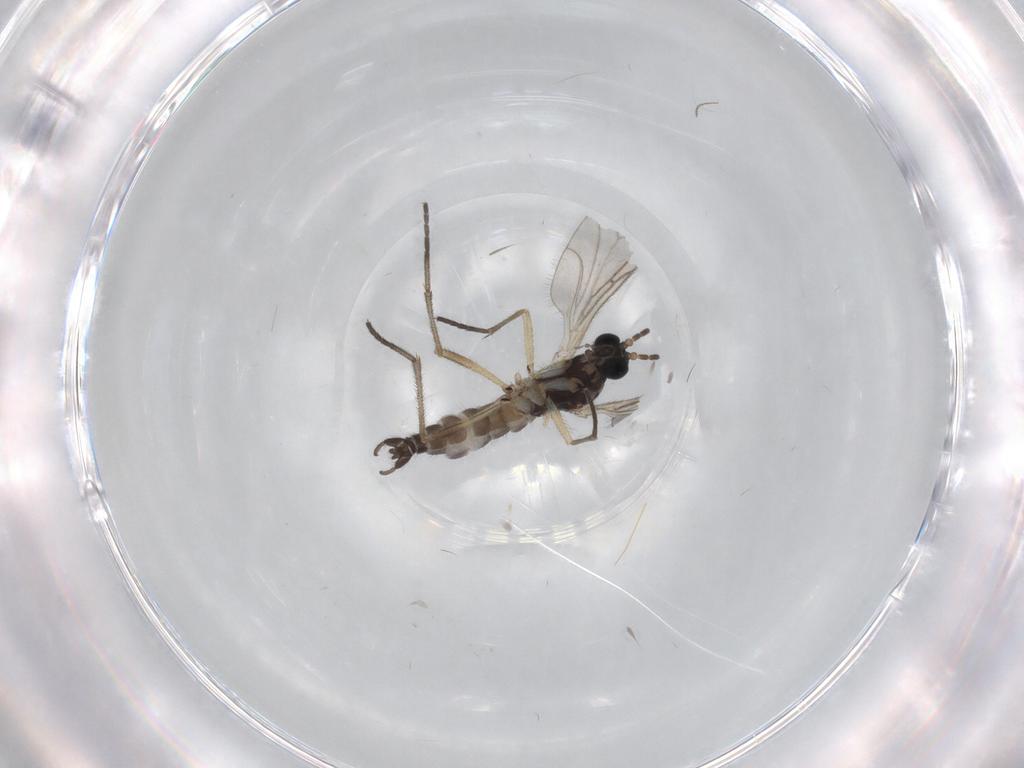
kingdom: Animalia
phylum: Arthropoda
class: Insecta
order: Diptera
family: Sciaridae
